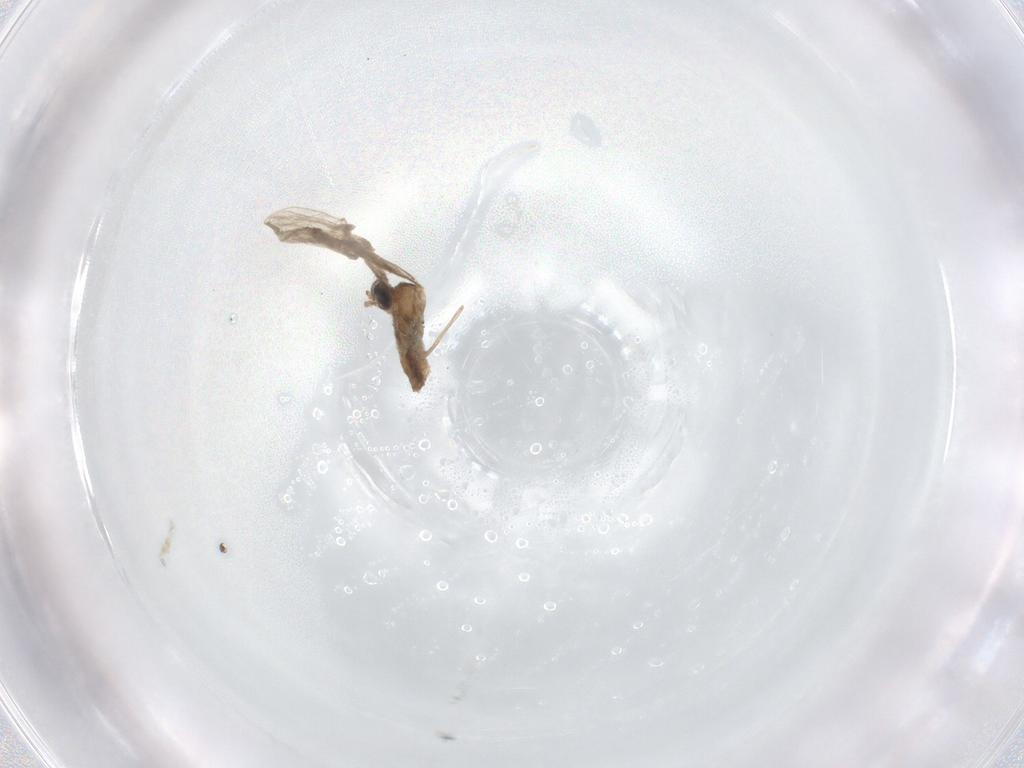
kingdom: Animalia
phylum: Arthropoda
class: Insecta
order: Diptera
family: Sciaridae
